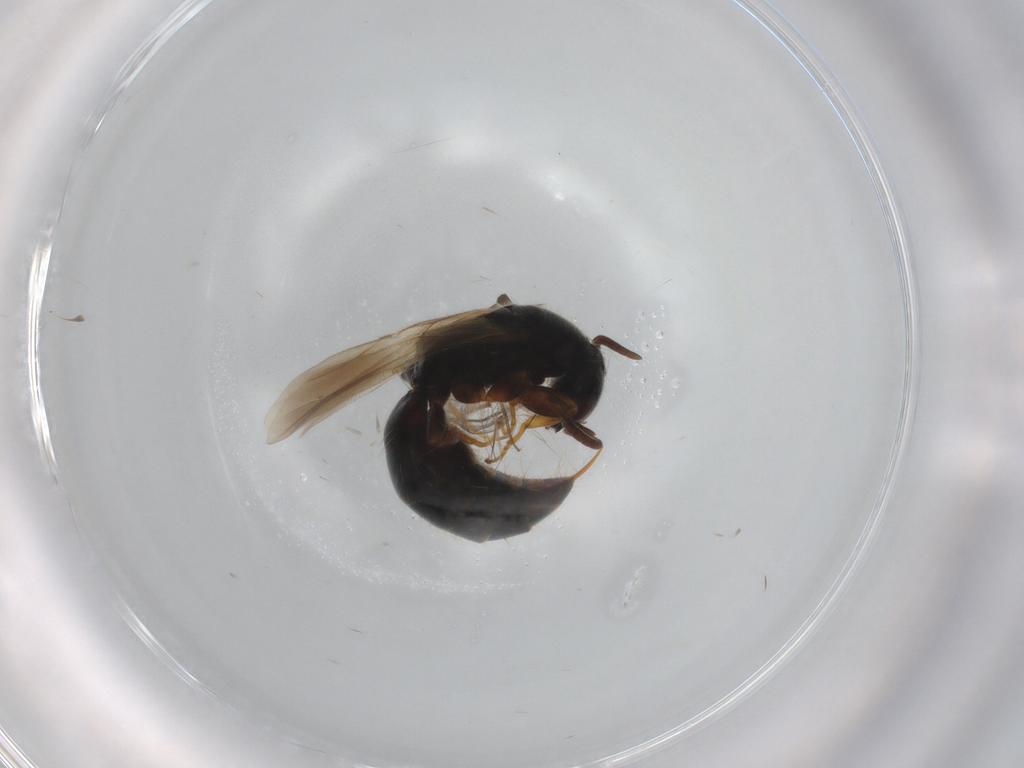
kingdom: Animalia
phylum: Arthropoda
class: Insecta
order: Hymenoptera
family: Bethylidae
